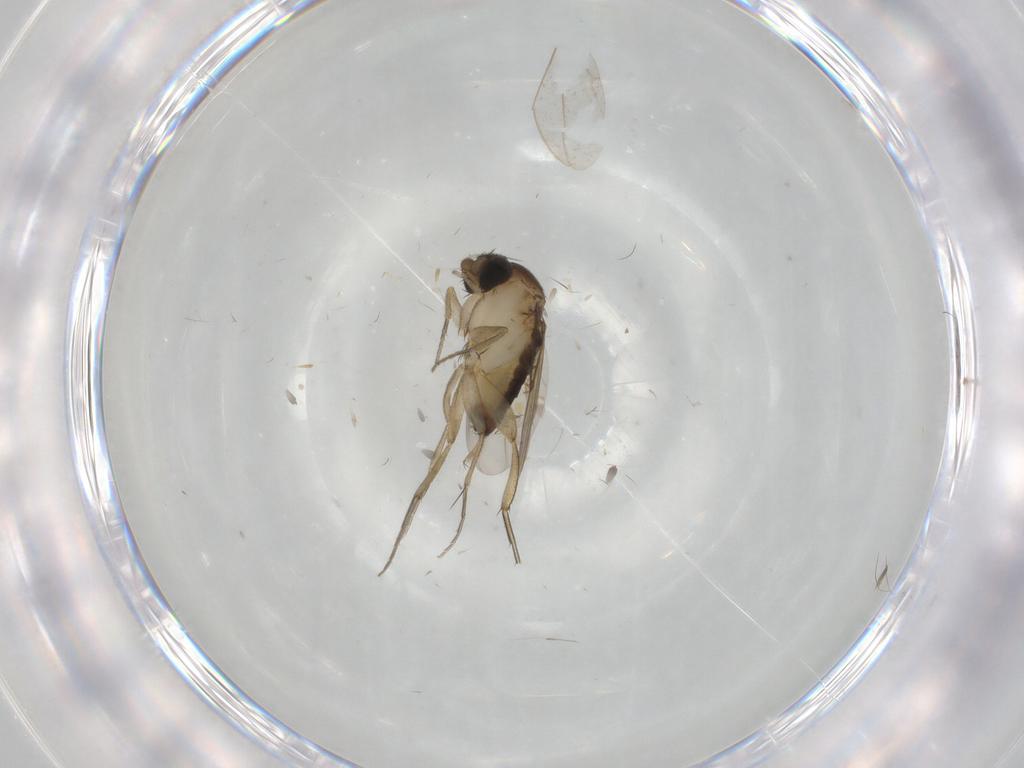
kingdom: Animalia
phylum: Arthropoda
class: Insecta
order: Diptera
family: Phoridae
